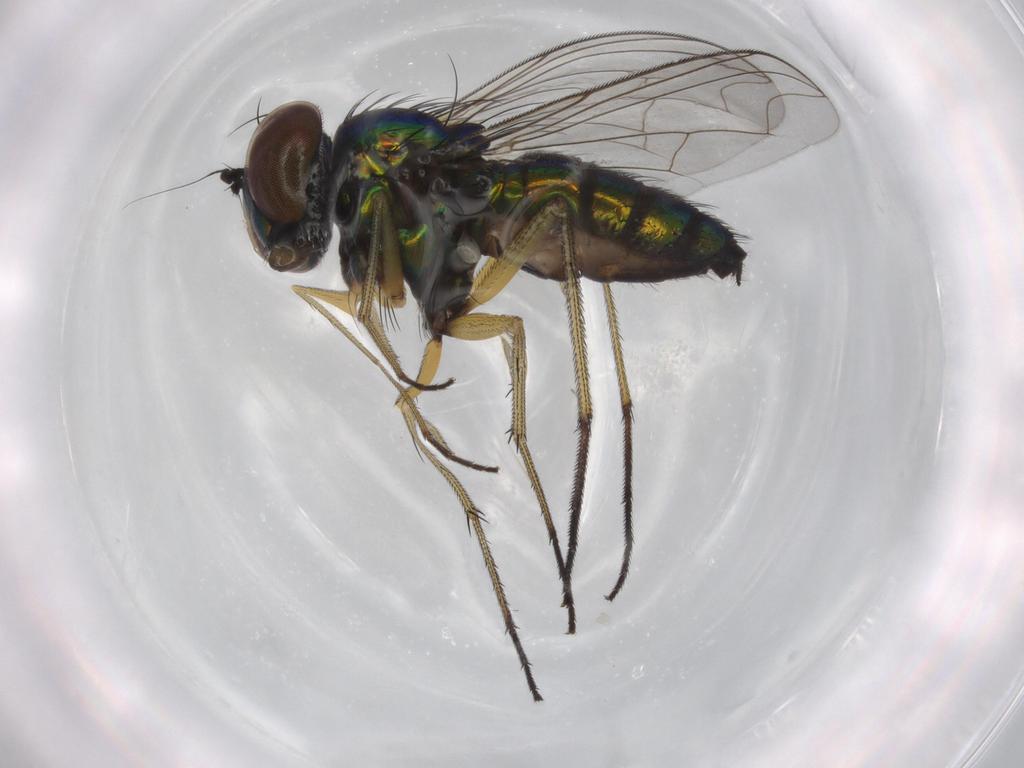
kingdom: Animalia
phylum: Arthropoda
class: Insecta
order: Diptera
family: Dolichopodidae
